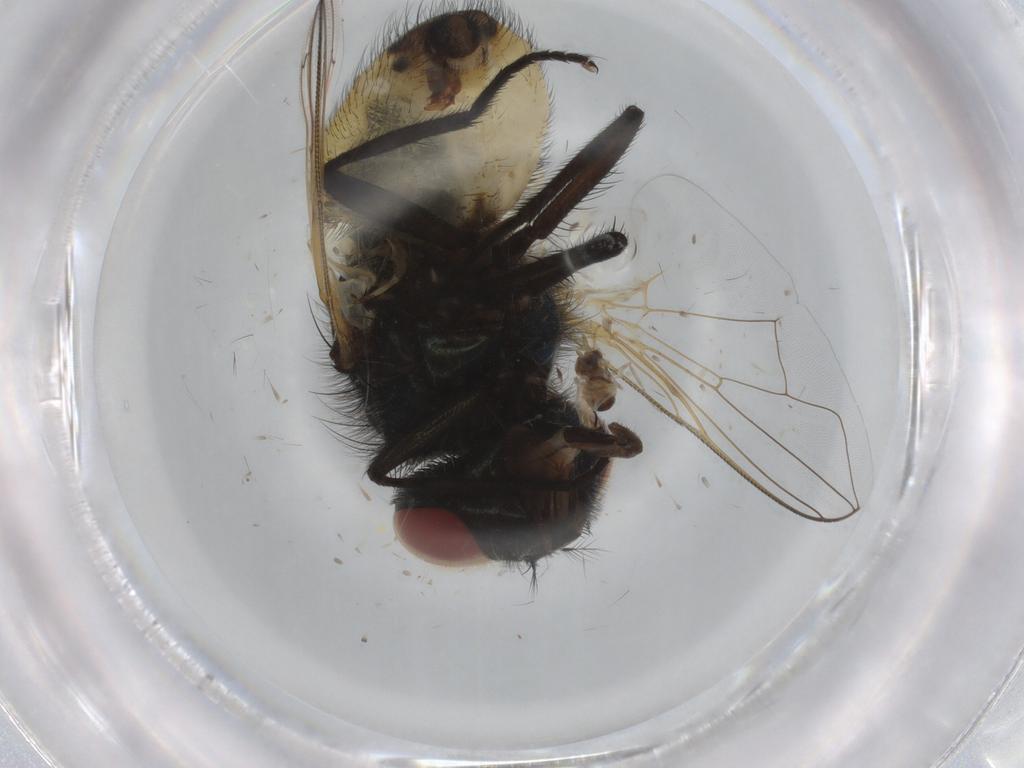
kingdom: Animalia
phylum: Arthropoda
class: Insecta
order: Diptera
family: Muscidae
